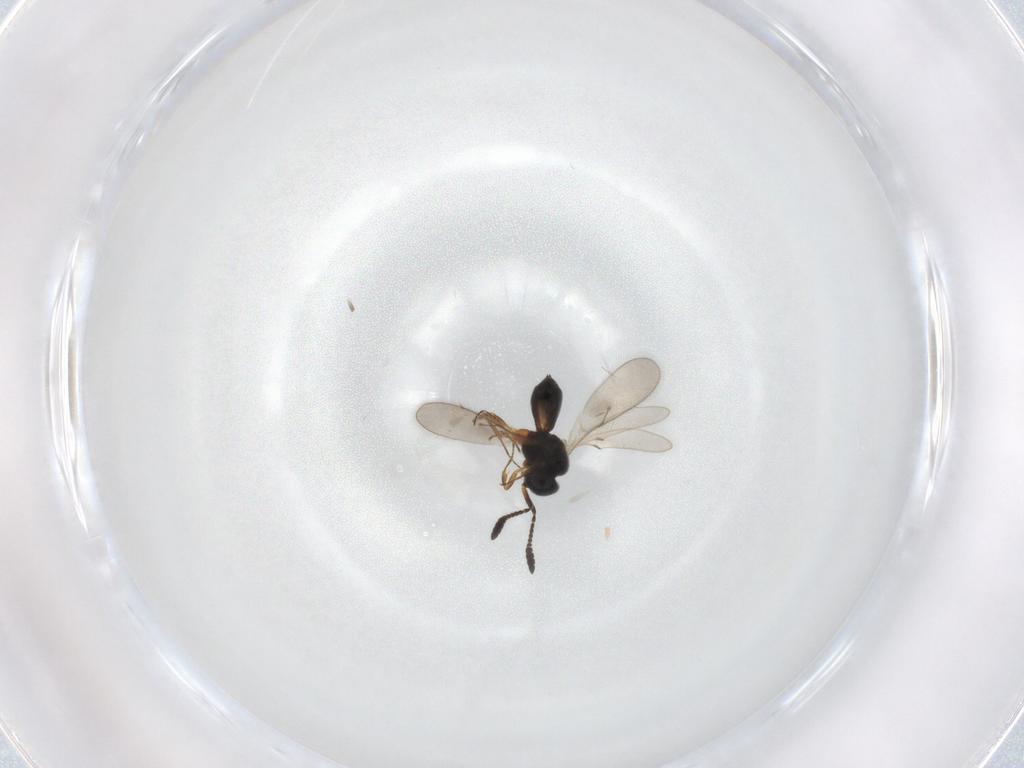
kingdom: Animalia
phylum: Arthropoda
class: Insecta
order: Hymenoptera
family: Scelionidae
